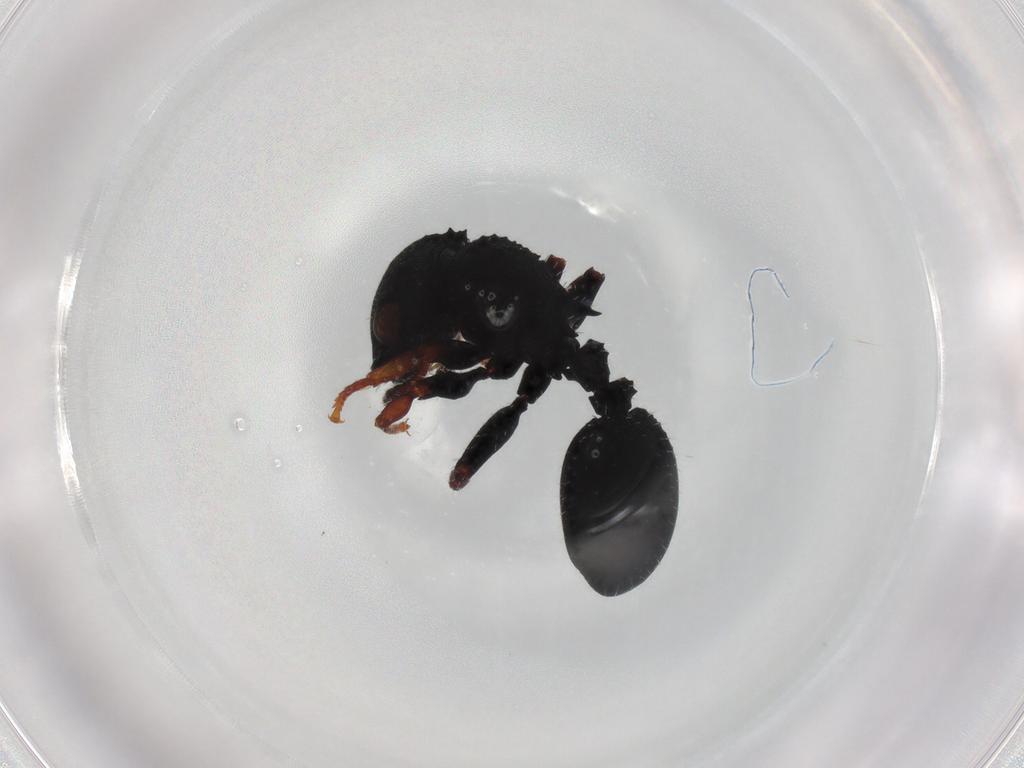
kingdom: Animalia
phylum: Arthropoda
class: Insecta
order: Hymenoptera
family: Formicidae
